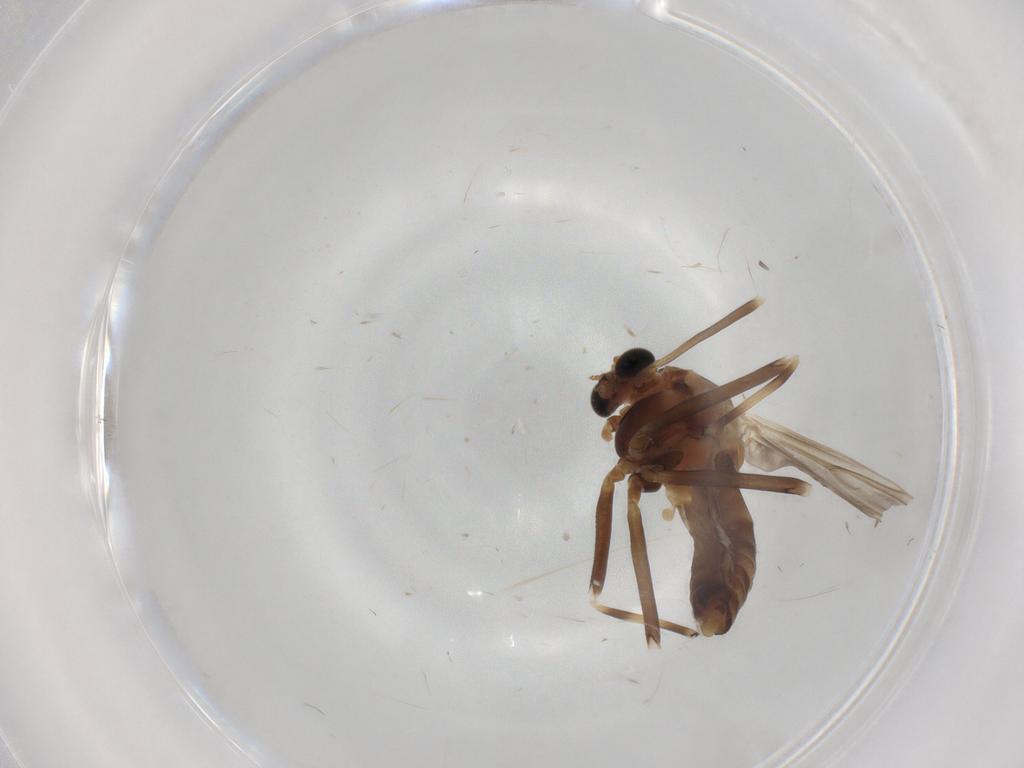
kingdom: Animalia
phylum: Arthropoda
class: Insecta
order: Diptera
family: Chironomidae
